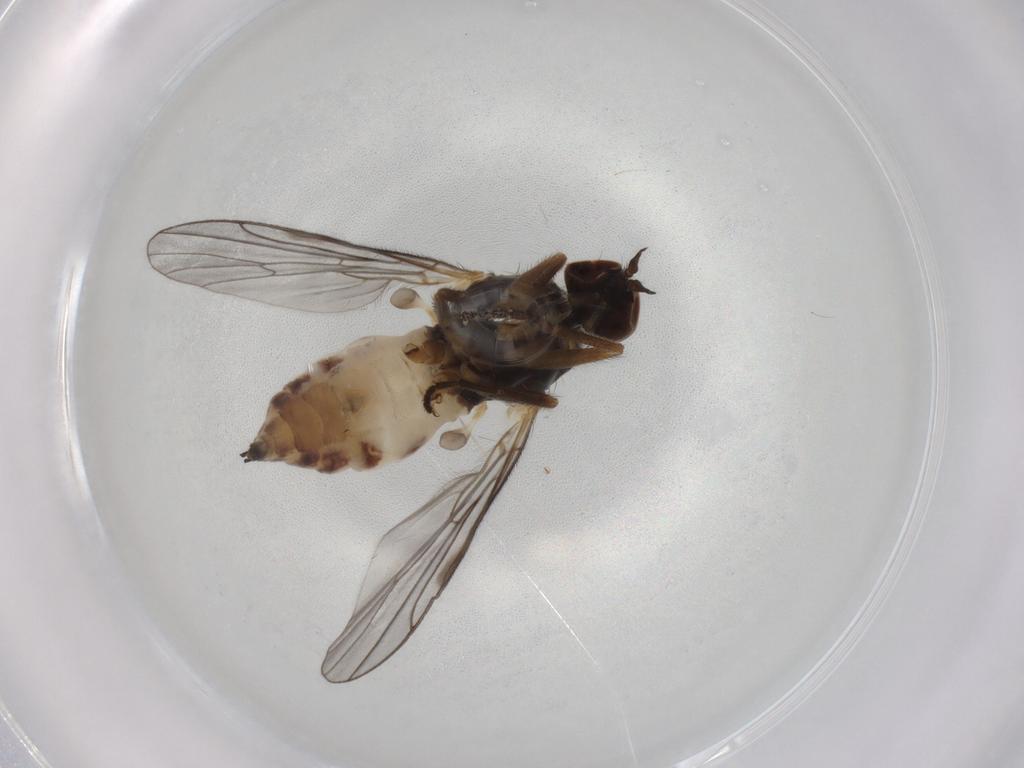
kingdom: Animalia
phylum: Arthropoda
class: Insecta
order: Diptera
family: Empididae
